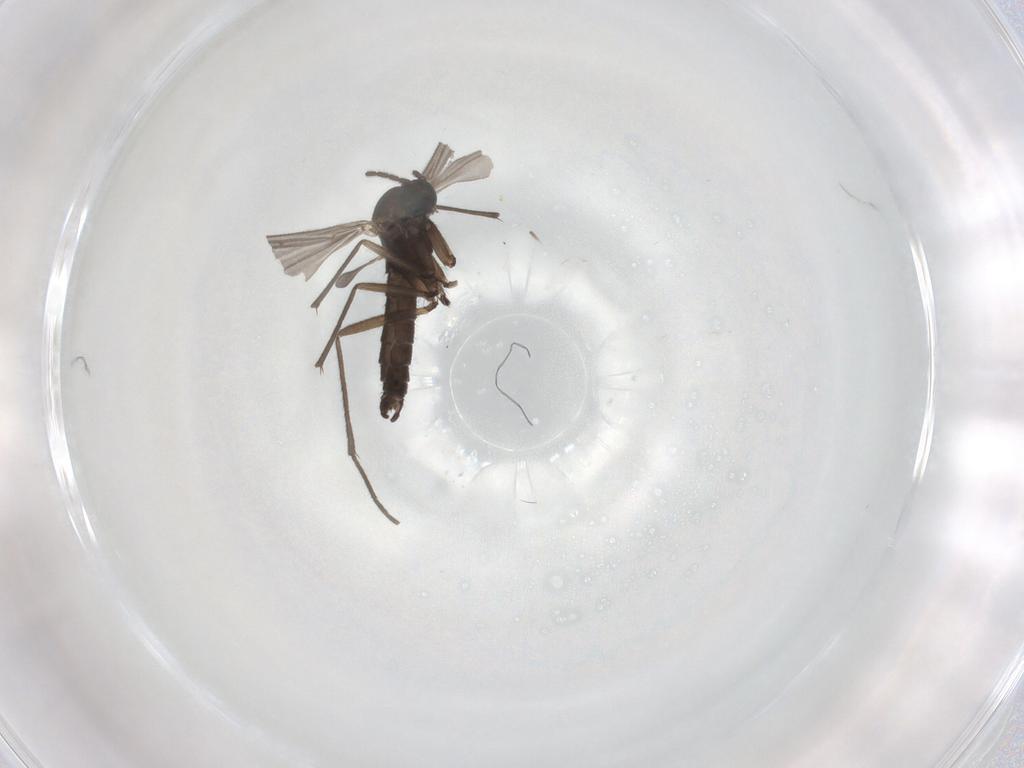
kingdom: Animalia
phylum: Arthropoda
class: Insecta
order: Diptera
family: Sciaridae
